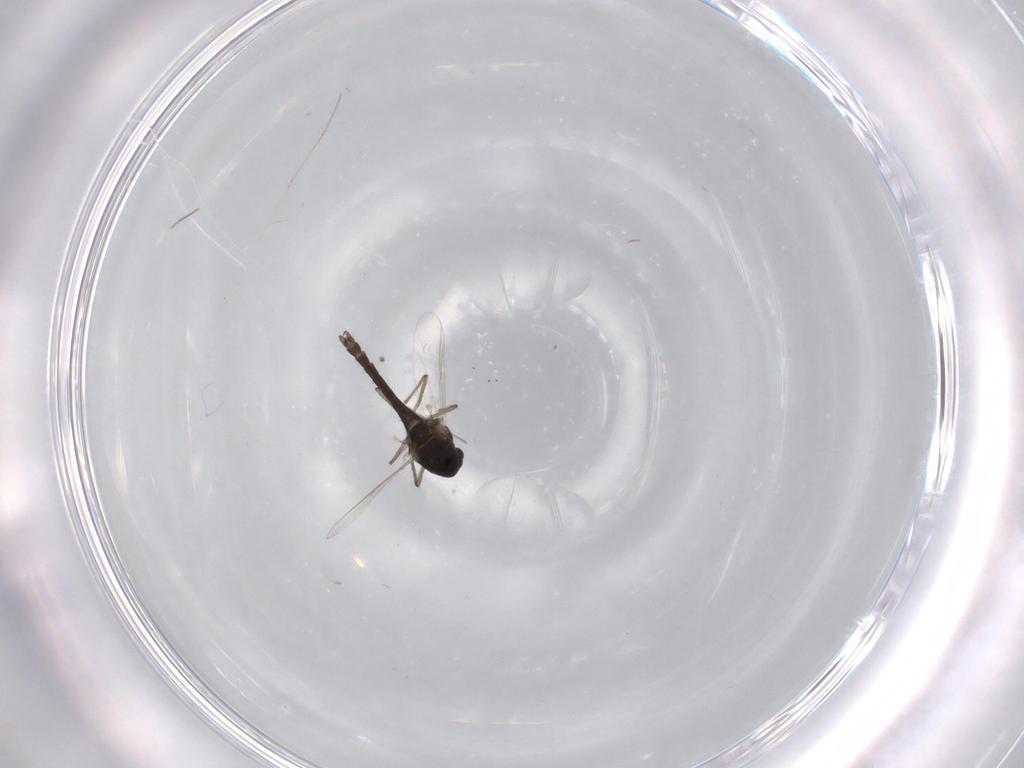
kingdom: Animalia
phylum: Arthropoda
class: Insecta
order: Diptera
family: Chironomidae
